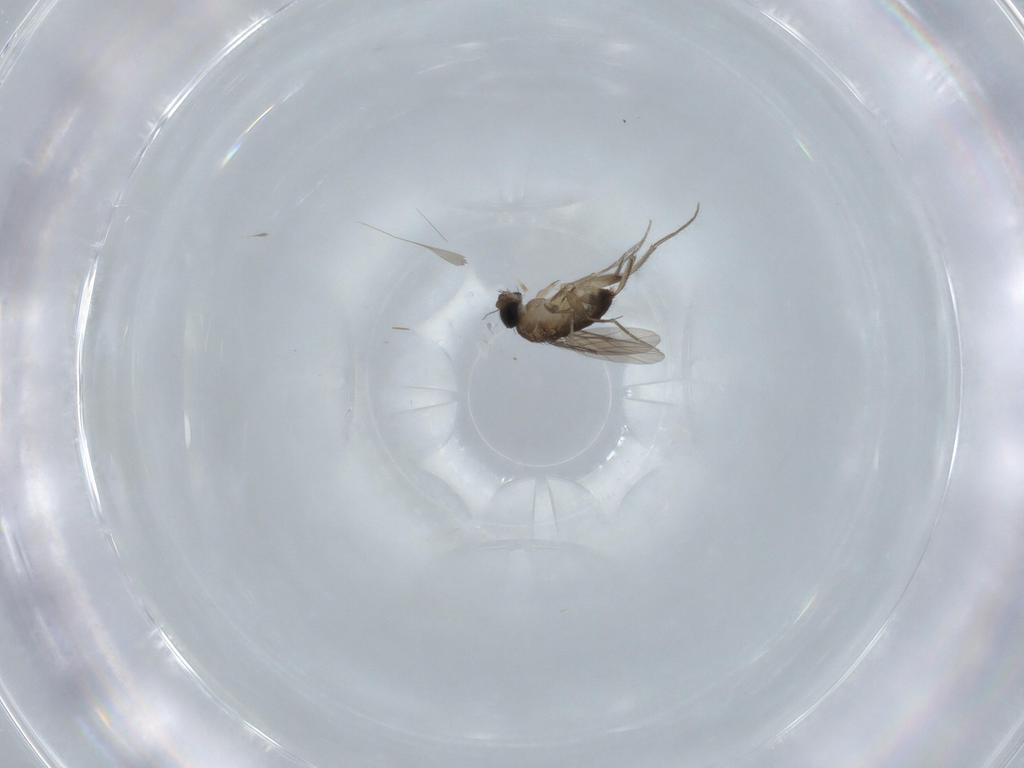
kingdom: Animalia
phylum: Arthropoda
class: Insecta
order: Diptera
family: Phoridae
